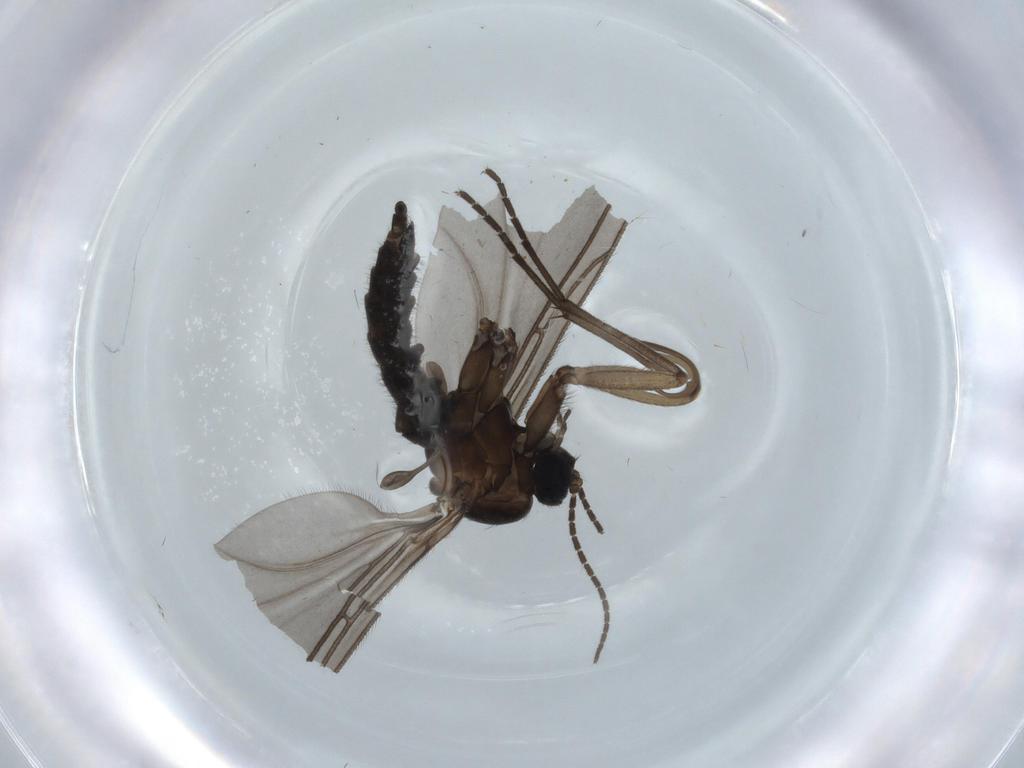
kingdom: Animalia
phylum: Arthropoda
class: Insecta
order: Diptera
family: Sciaridae
